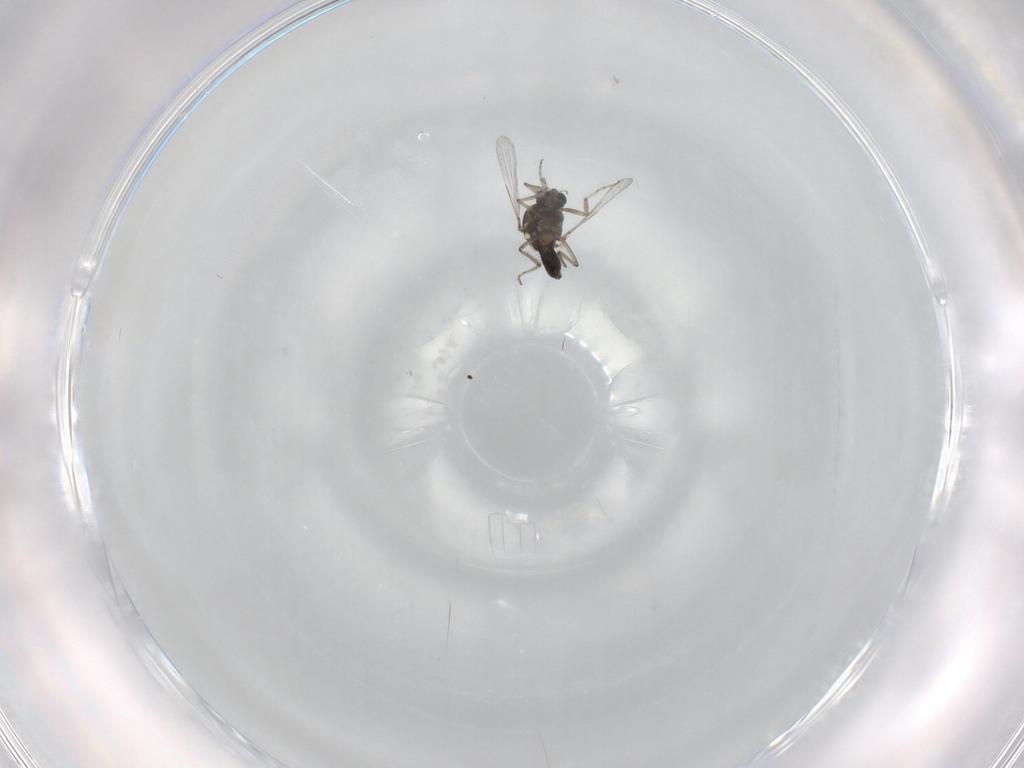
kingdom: Animalia
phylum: Arthropoda
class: Insecta
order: Diptera
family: Ceratopogonidae
